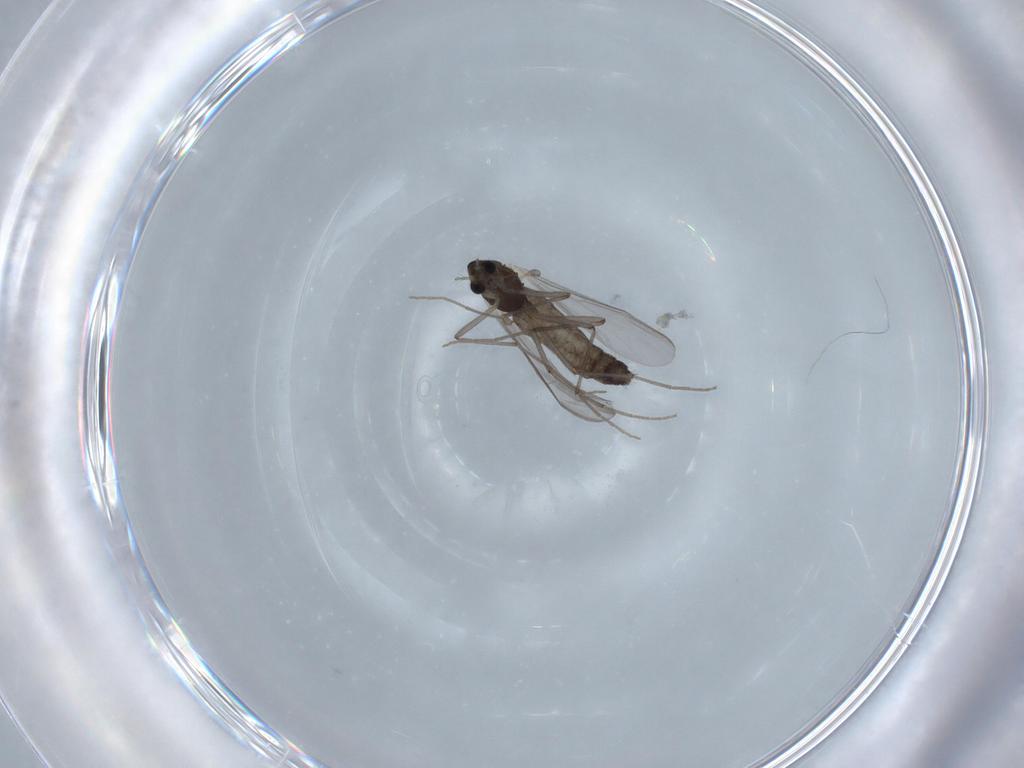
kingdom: Animalia
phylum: Arthropoda
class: Insecta
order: Diptera
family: Chironomidae
